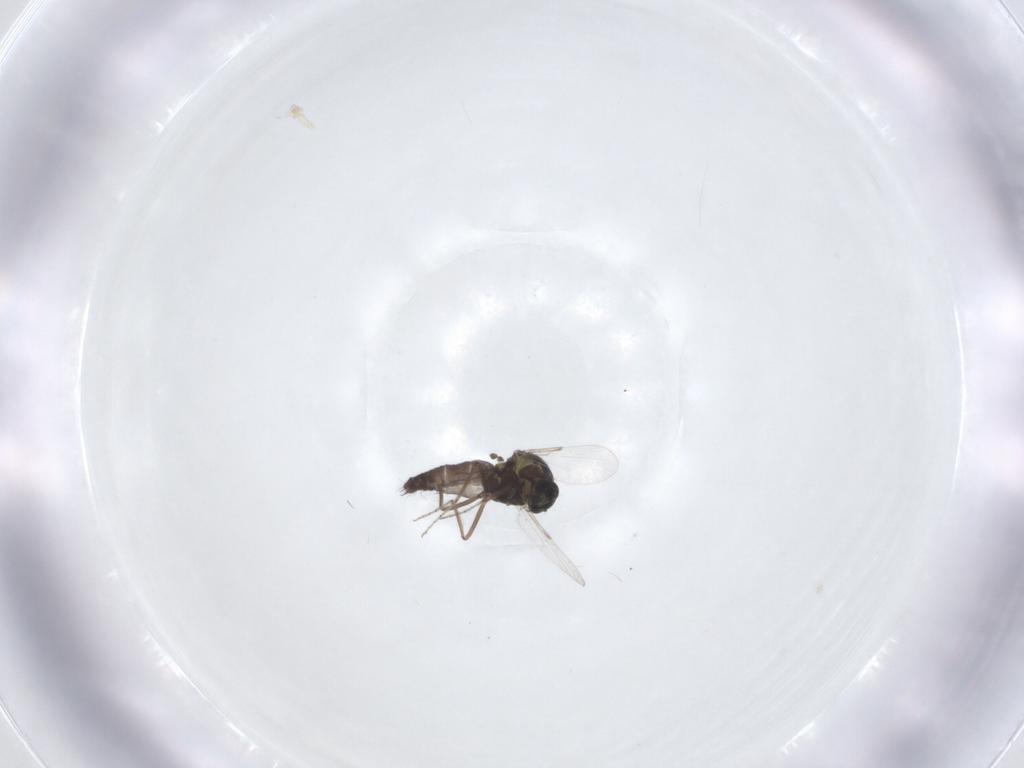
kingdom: Animalia
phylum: Arthropoda
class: Insecta
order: Diptera
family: Ceratopogonidae
